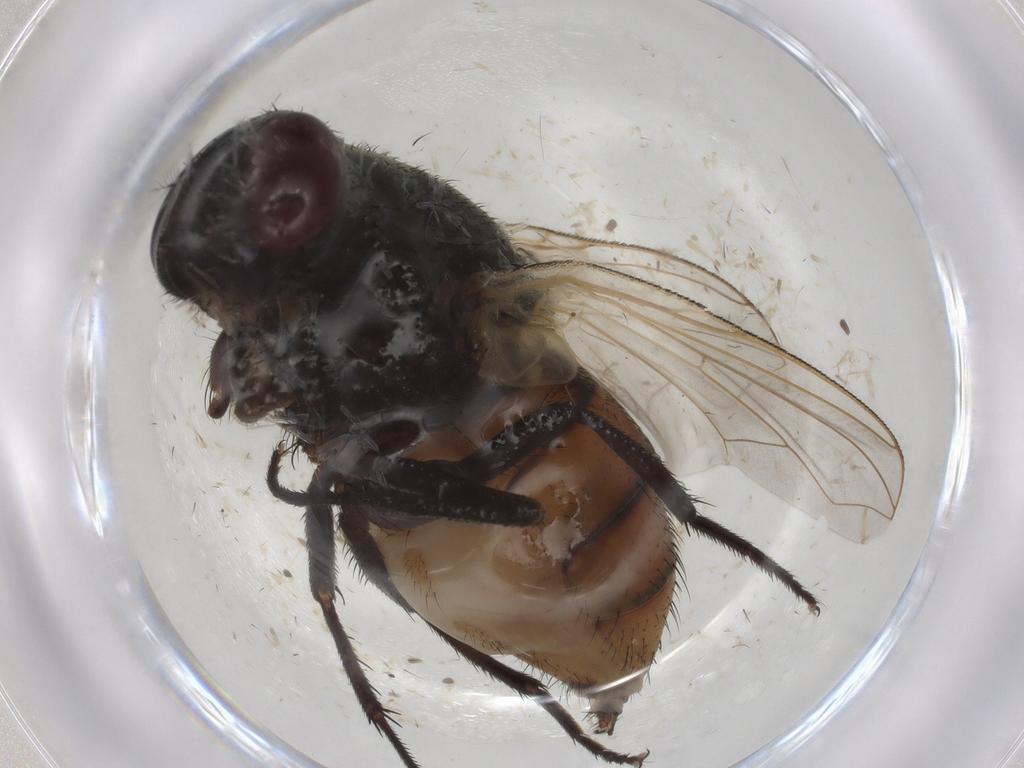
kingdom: Animalia
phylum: Arthropoda
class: Insecta
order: Diptera
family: Muscidae
